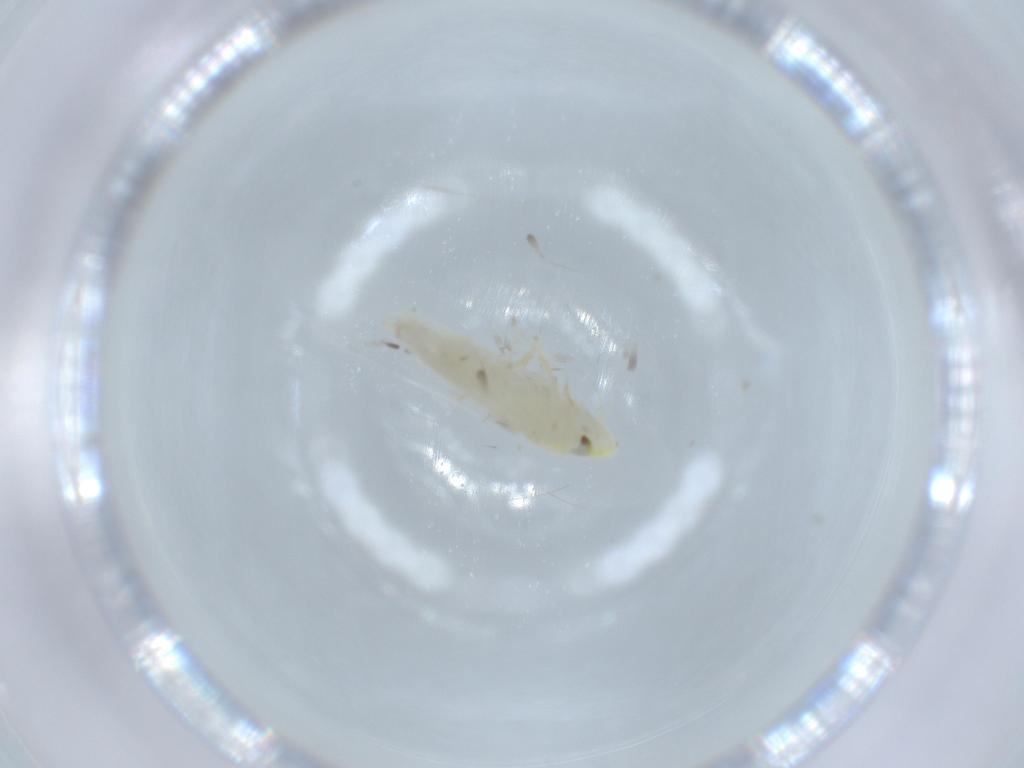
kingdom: Animalia
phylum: Arthropoda
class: Insecta
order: Hemiptera
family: Cicadellidae
